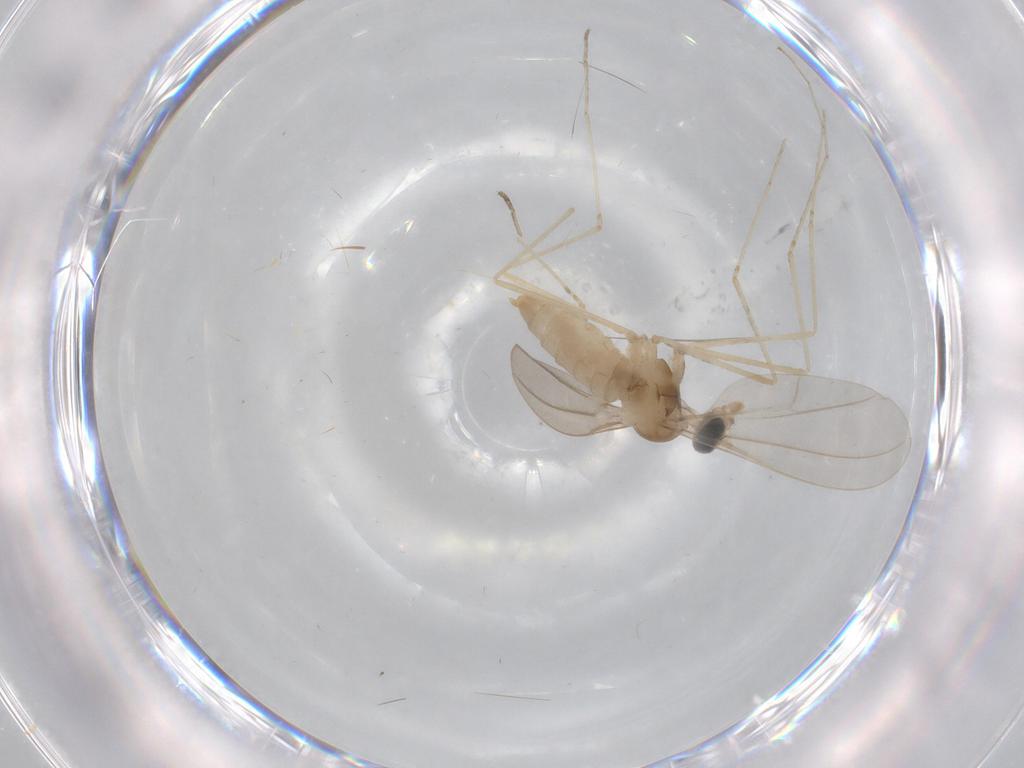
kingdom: Animalia
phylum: Arthropoda
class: Insecta
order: Diptera
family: Cecidomyiidae
